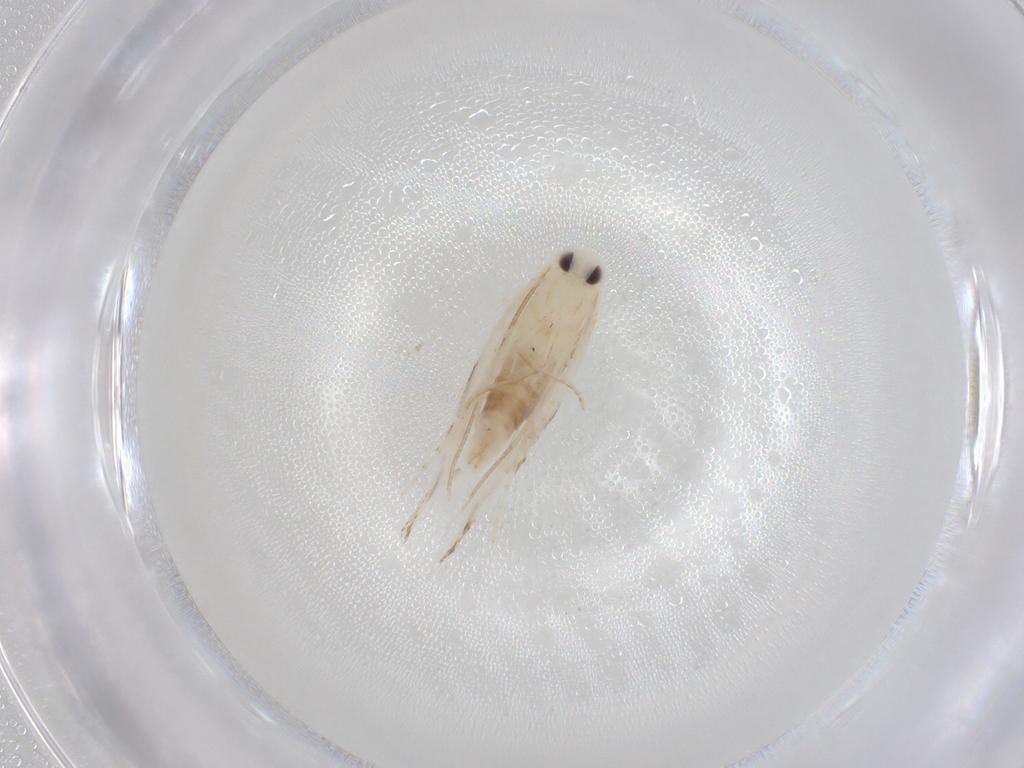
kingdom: Animalia
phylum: Arthropoda
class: Insecta
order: Lepidoptera
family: Lyonetiidae
